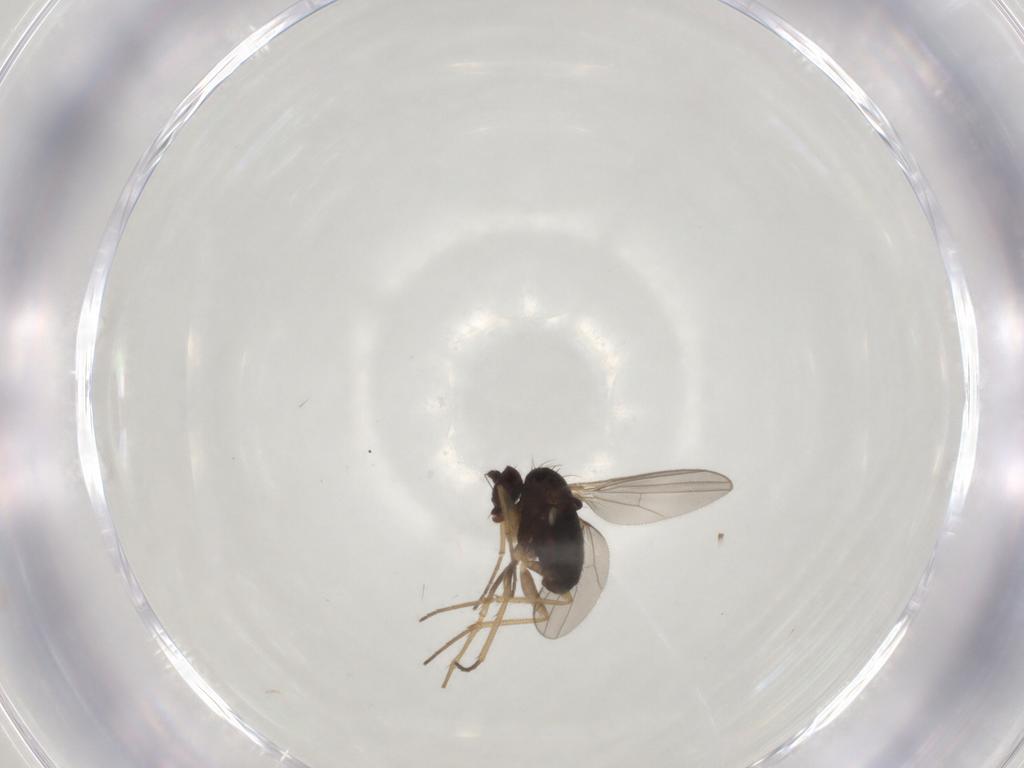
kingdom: Animalia
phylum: Arthropoda
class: Insecta
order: Diptera
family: Dolichopodidae
